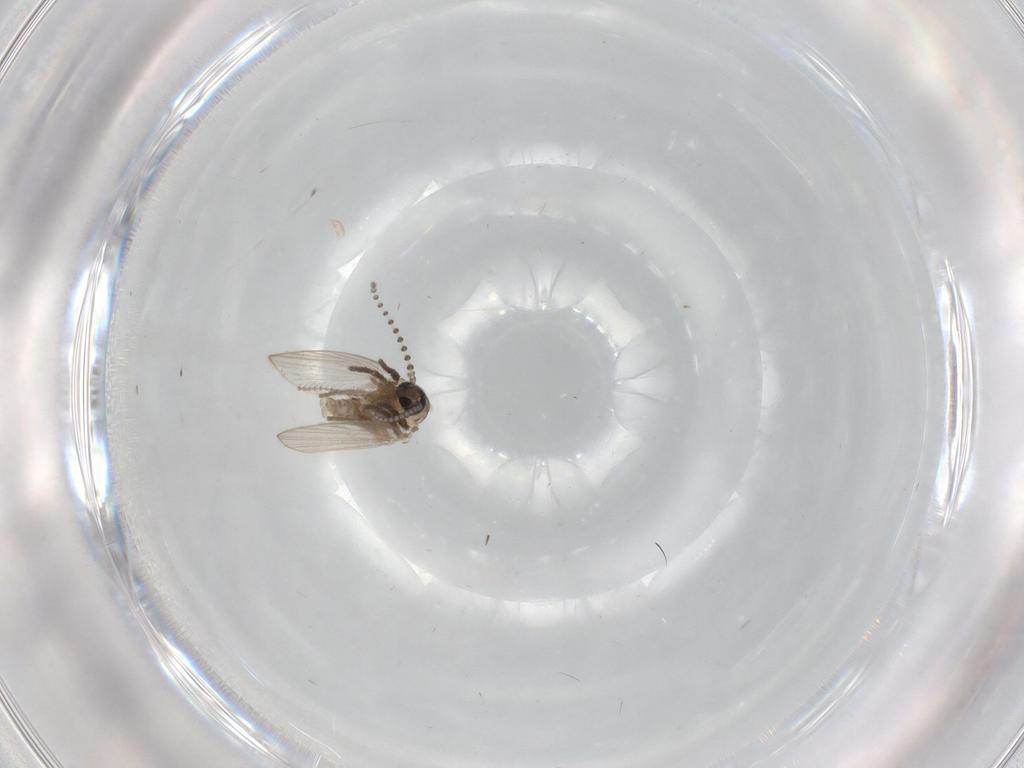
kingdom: Animalia
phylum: Arthropoda
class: Insecta
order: Diptera
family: Ceratopogonidae
